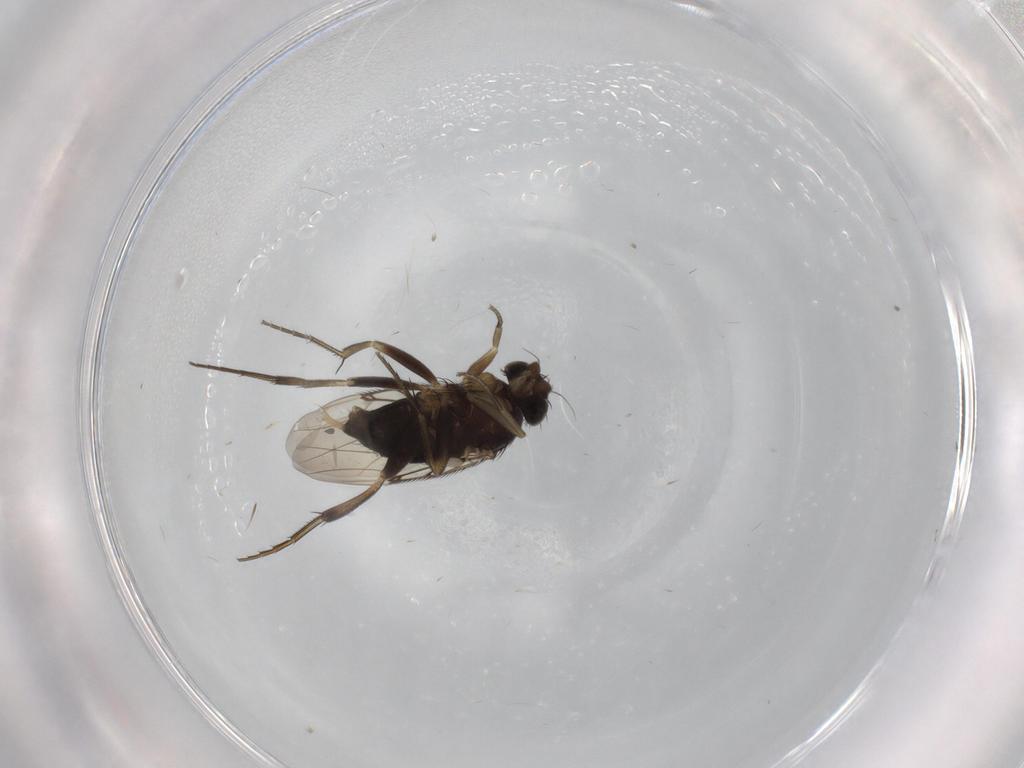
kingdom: Animalia
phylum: Arthropoda
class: Insecta
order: Diptera
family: Phoridae
